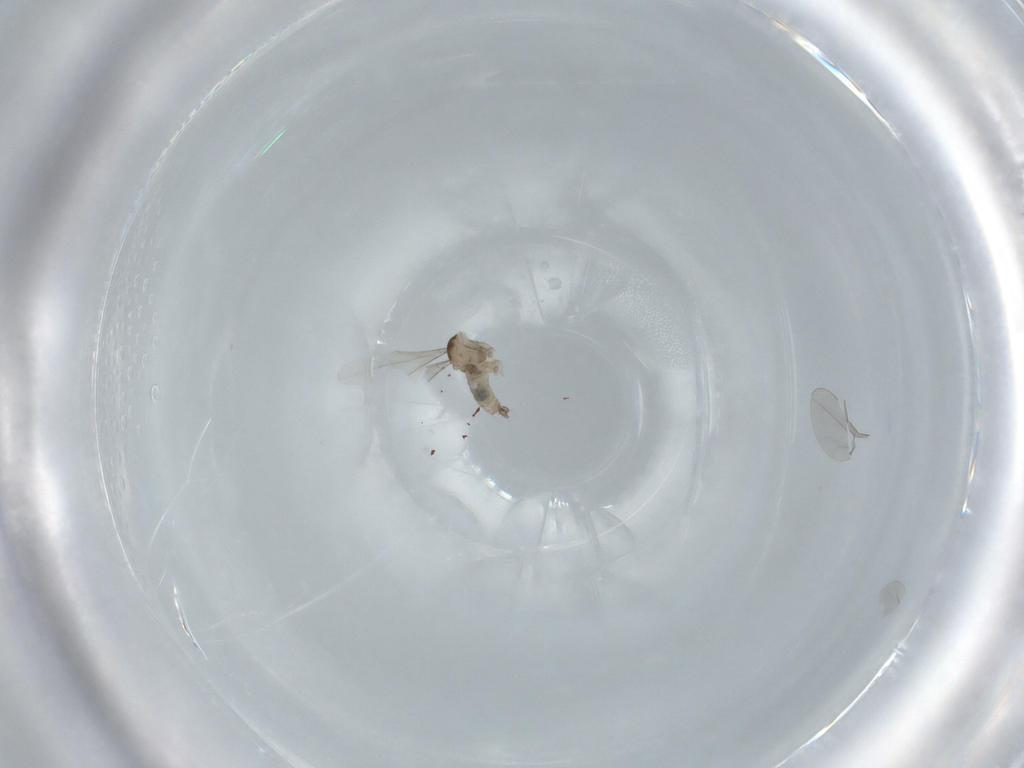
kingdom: Animalia
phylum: Arthropoda
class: Insecta
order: Diptera
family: Cecidomyiidae
